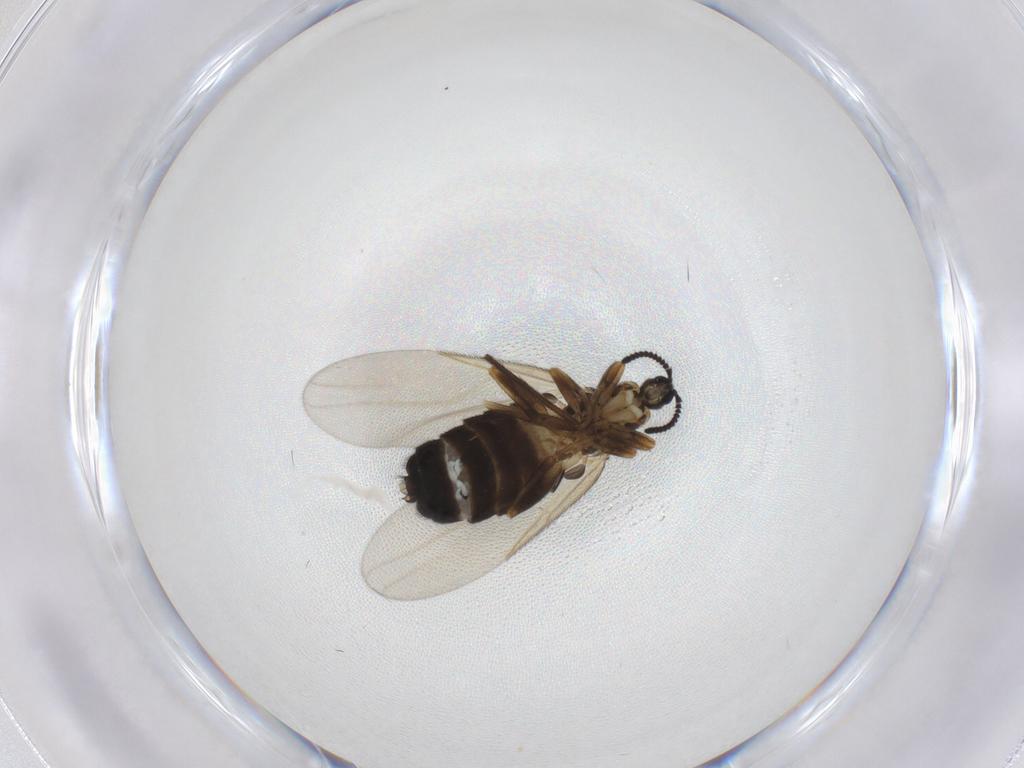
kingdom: Animalia
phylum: Arthropoda
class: Insecta
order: Diptera
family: Scatopsidae
